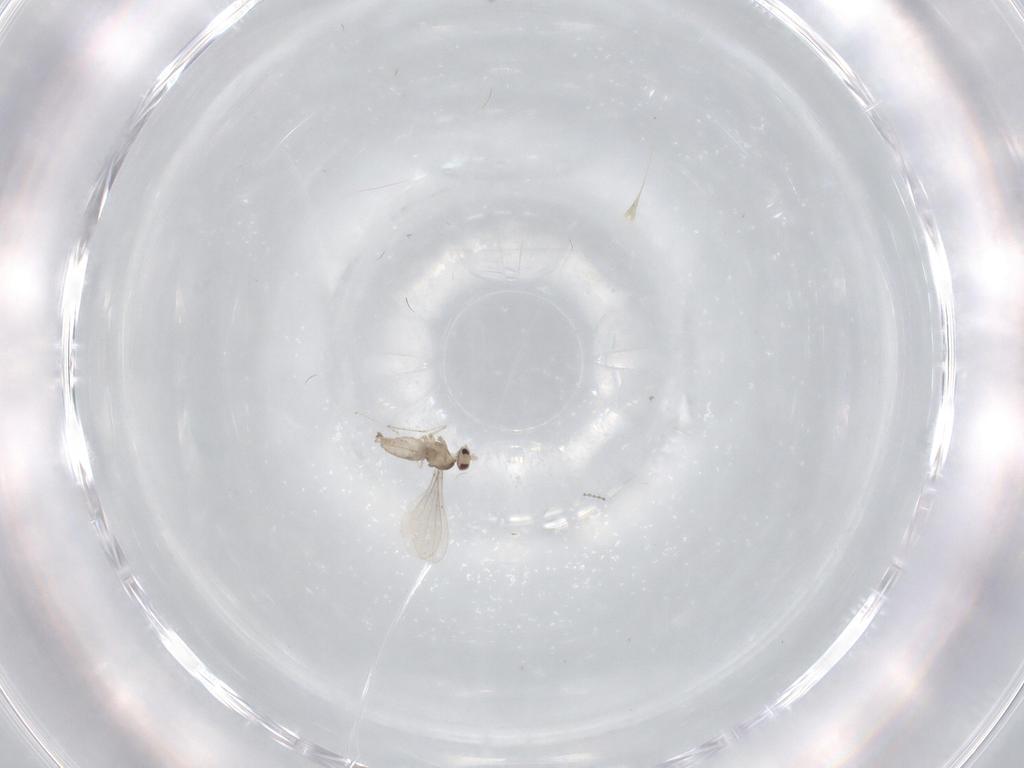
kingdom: Animalia
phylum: Arthropoda
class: Insecta
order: Diptera
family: Cecidomyiidae
